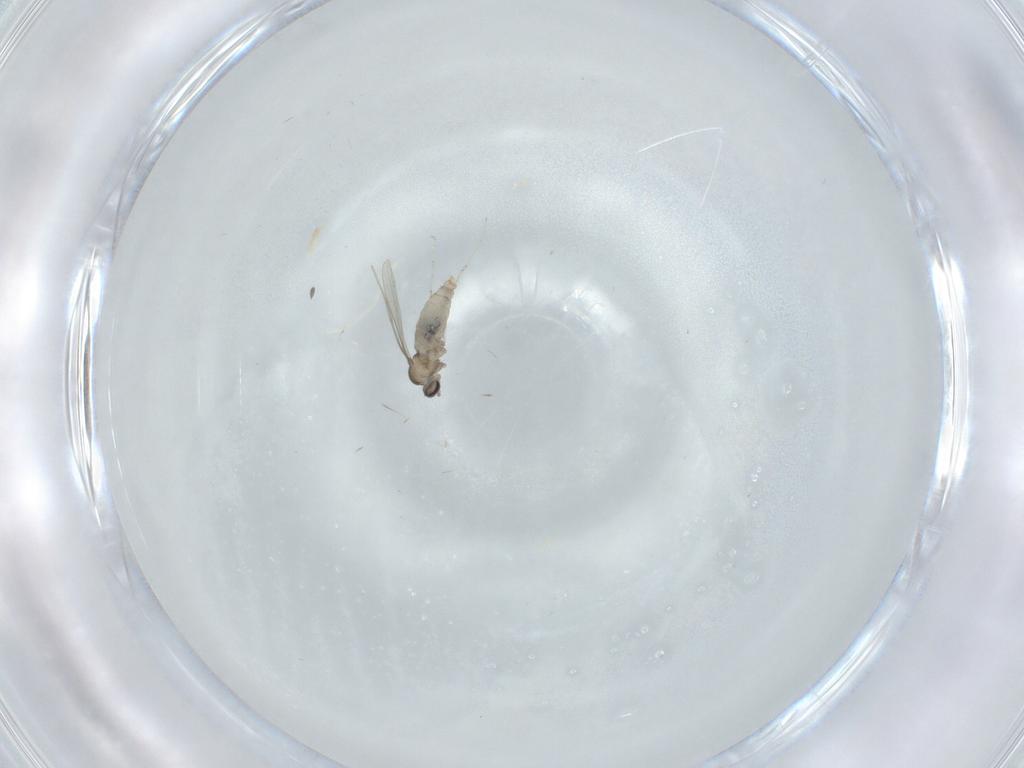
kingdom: Animalia
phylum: Arthropoda
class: Insecta
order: Diptera
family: Cecidomyiidae
